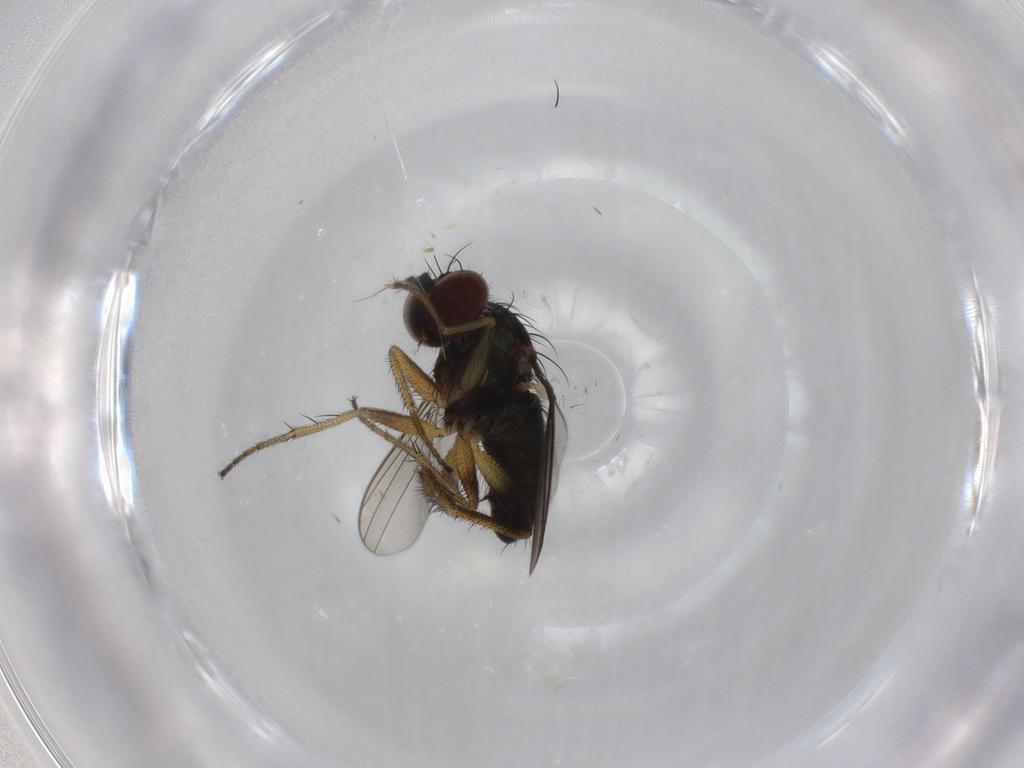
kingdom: Animalia
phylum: Arthropoda
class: Insecta
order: Diptera
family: Dolichopodidae
